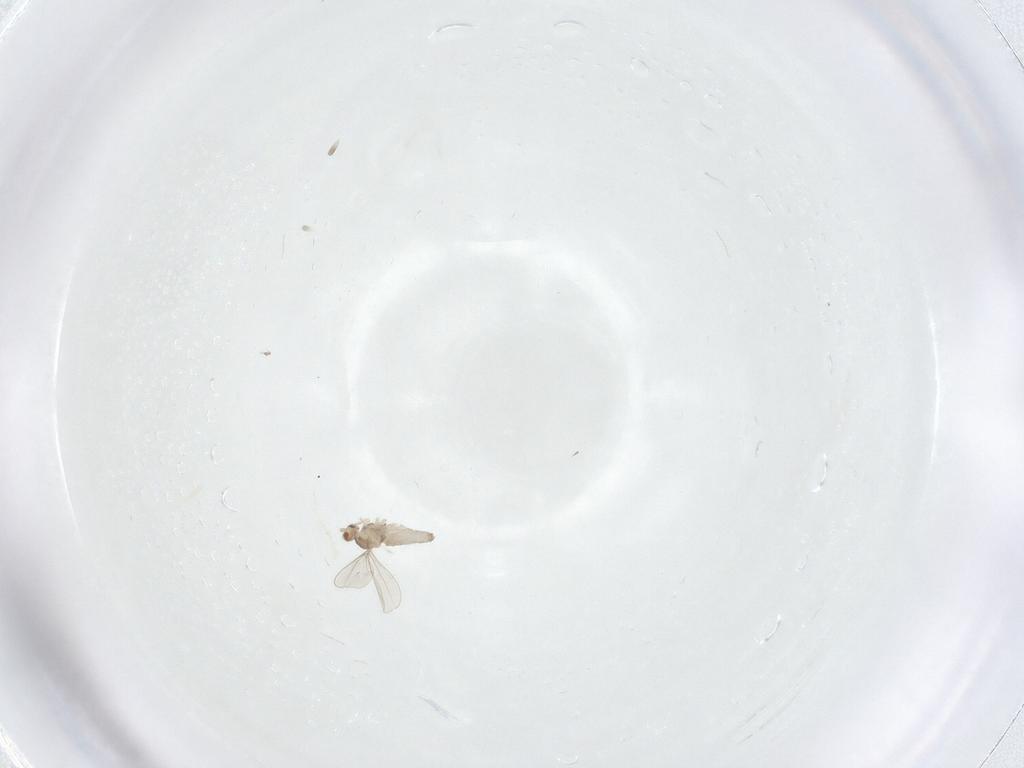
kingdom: Animalia
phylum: Arthropoda
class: Insecta
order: Diptera
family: Cecidomyiidae
